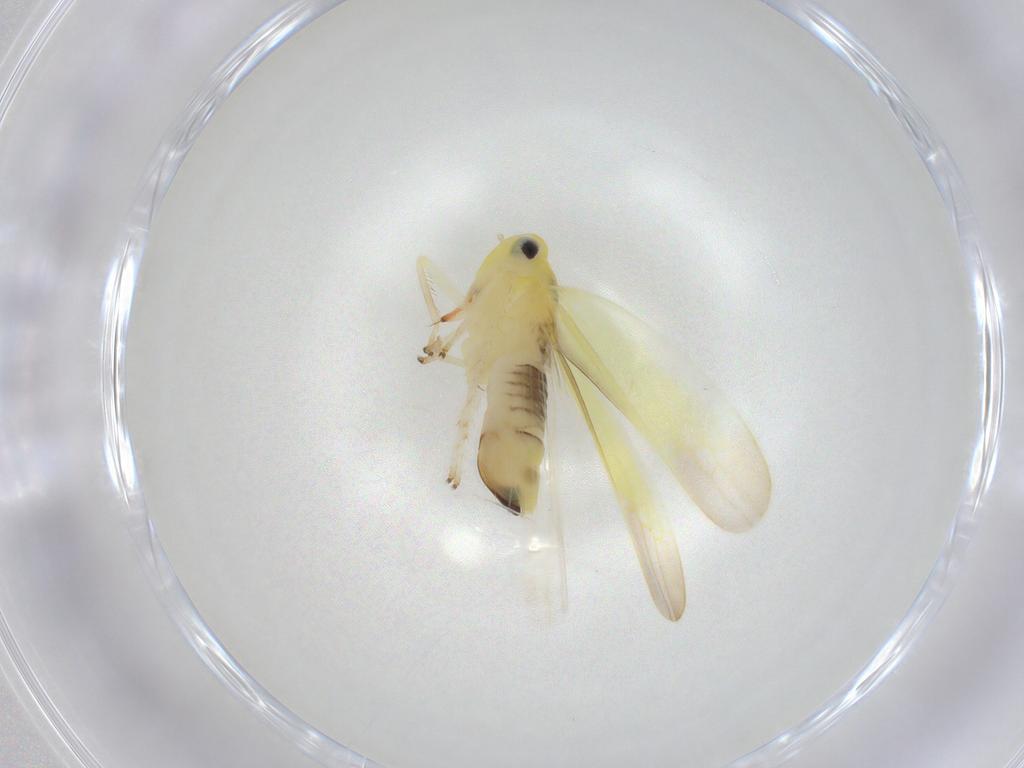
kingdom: Animalia
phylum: Arthropoda
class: Insecta
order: Hemiptera
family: Cicadellidae
